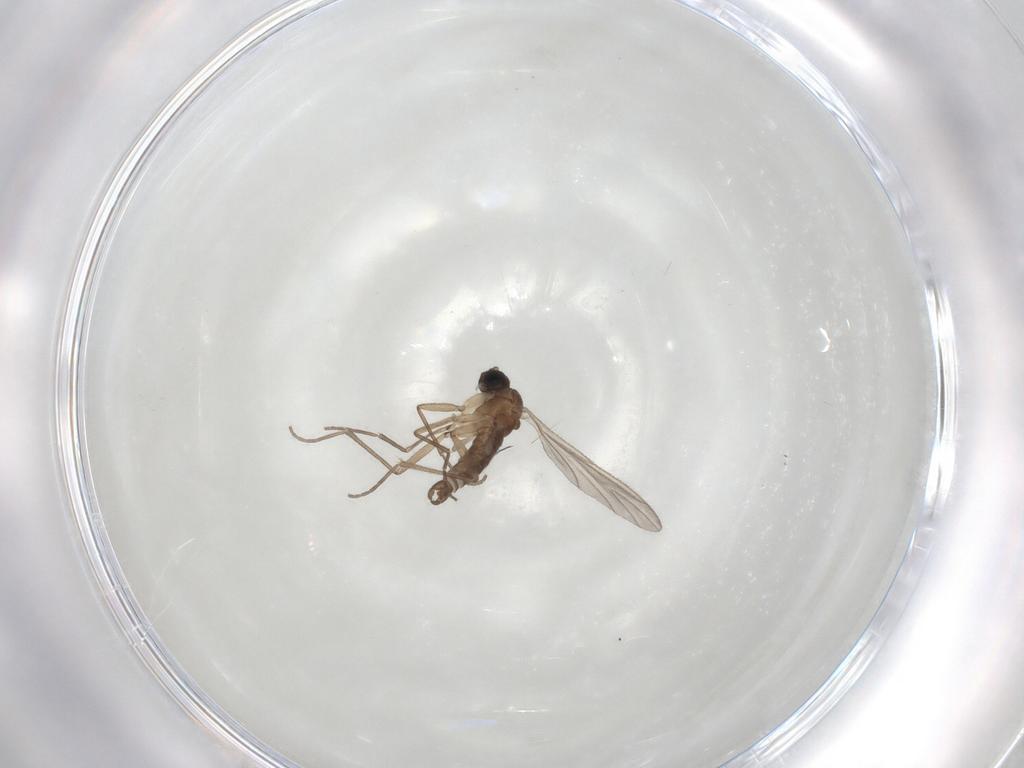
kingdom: Animalia
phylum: Arthropoda
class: Insecta
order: Diptera
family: Sciaridae
